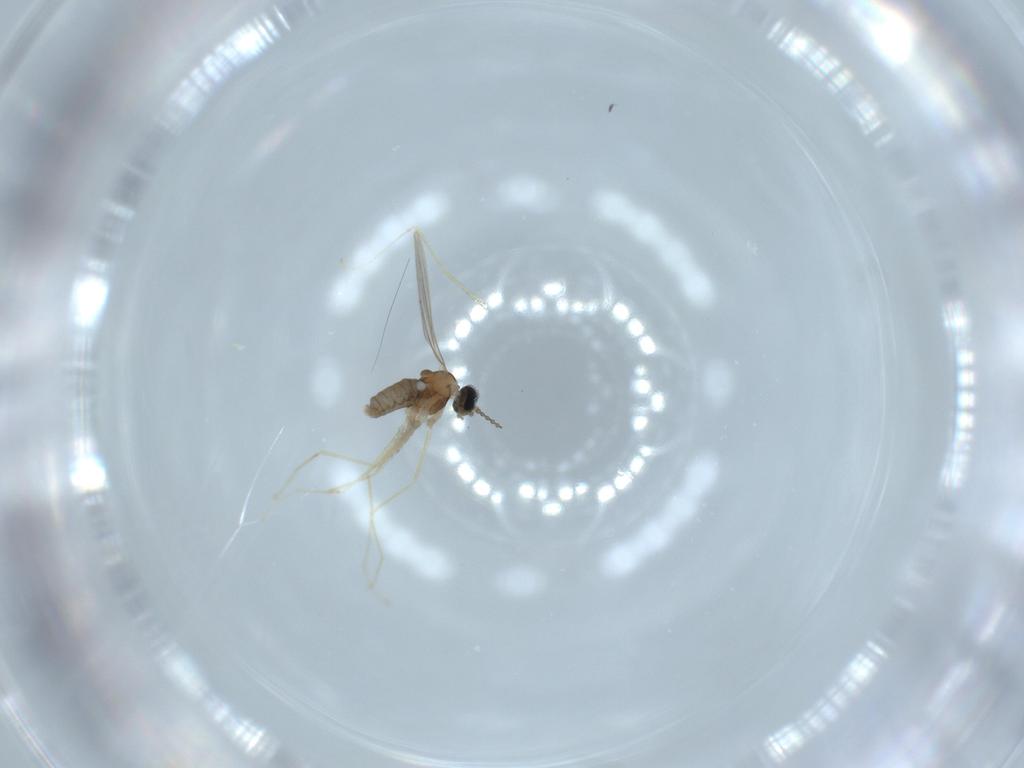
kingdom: Animalia
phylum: Arthropoda
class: Insecta
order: Diptera
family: Cecidomyiidae
